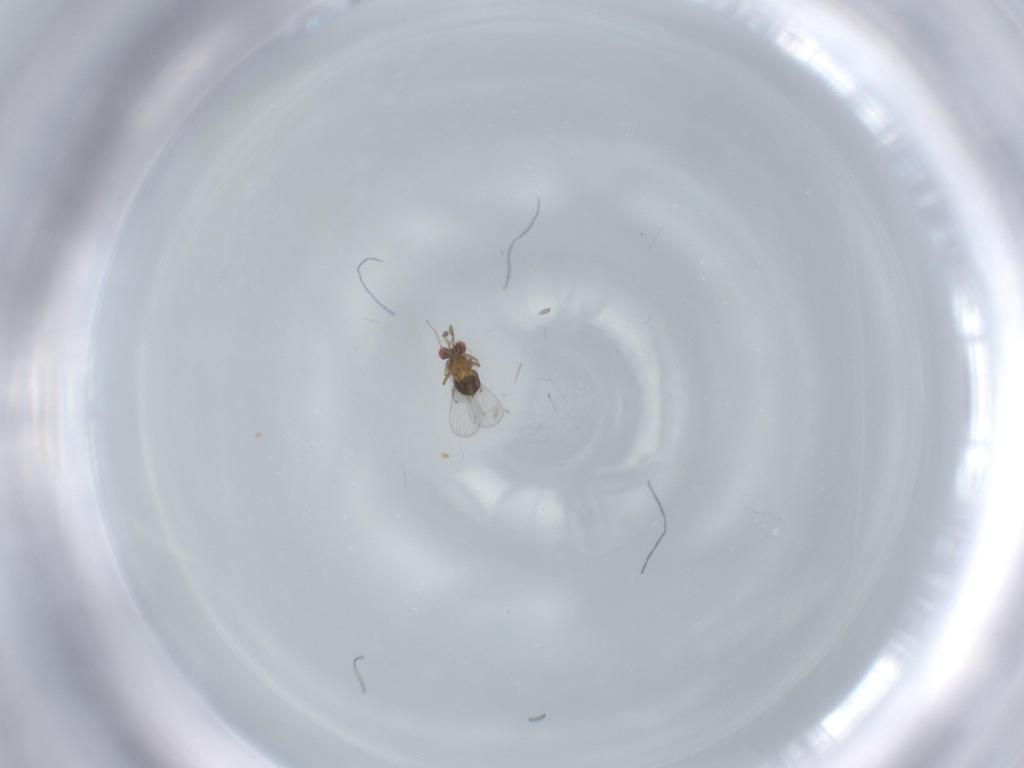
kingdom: Animalia
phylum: Arthropoda
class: Insecta
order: Hymenoptera
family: Trichogrammatidae
